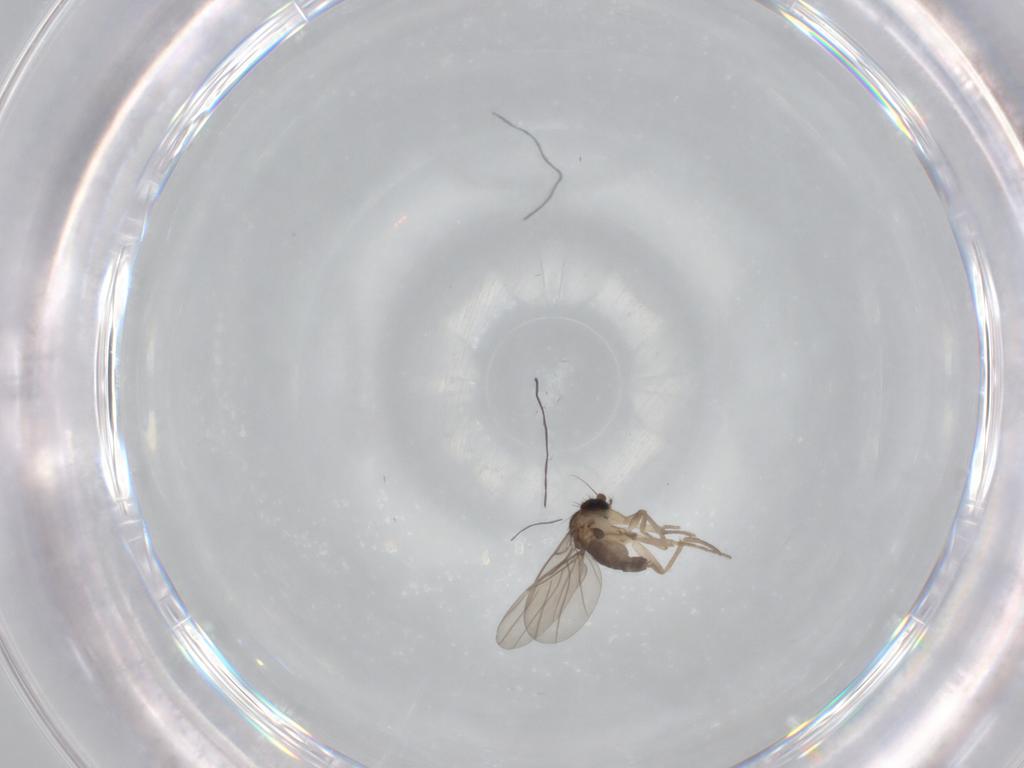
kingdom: Animalia
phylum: Arthropoda
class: Insecta
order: Diptera
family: Phoridae
